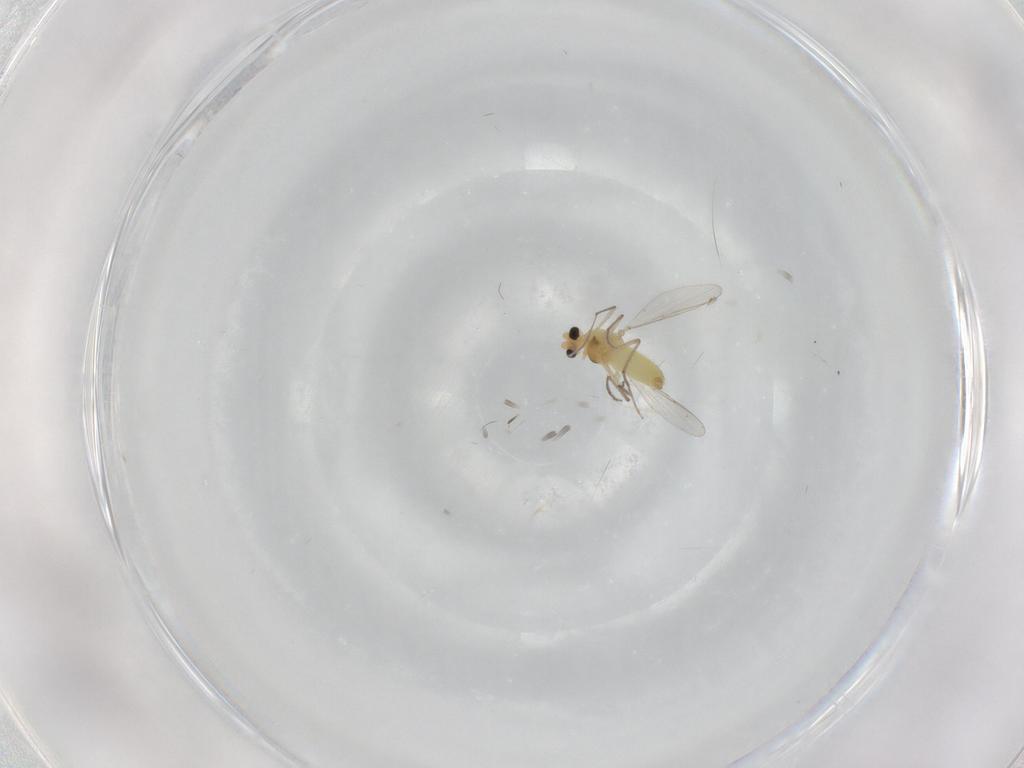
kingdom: Animalia
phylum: Arthropoda
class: Insecta
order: Diptera
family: Chironomidae
